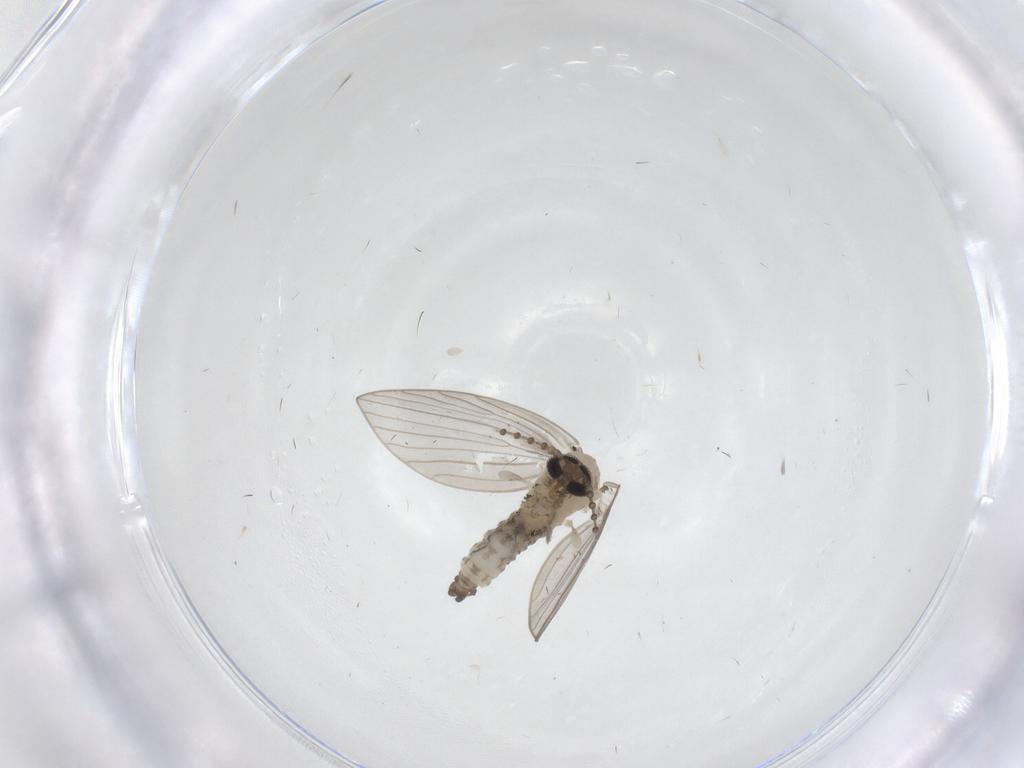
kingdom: Animalia
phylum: Arthropoda
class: Insecta
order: Diptera
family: Psychodidae
